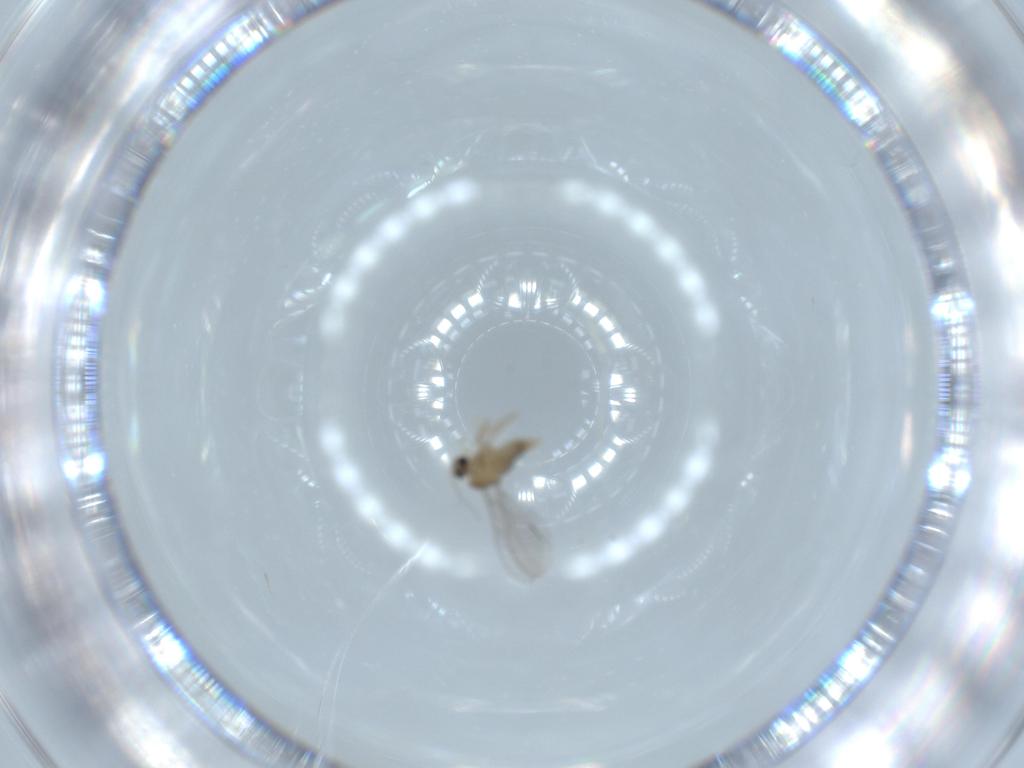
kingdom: Animalia
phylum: Arthropoda
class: Insecta
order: Diptera
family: Cecidomyiidae
